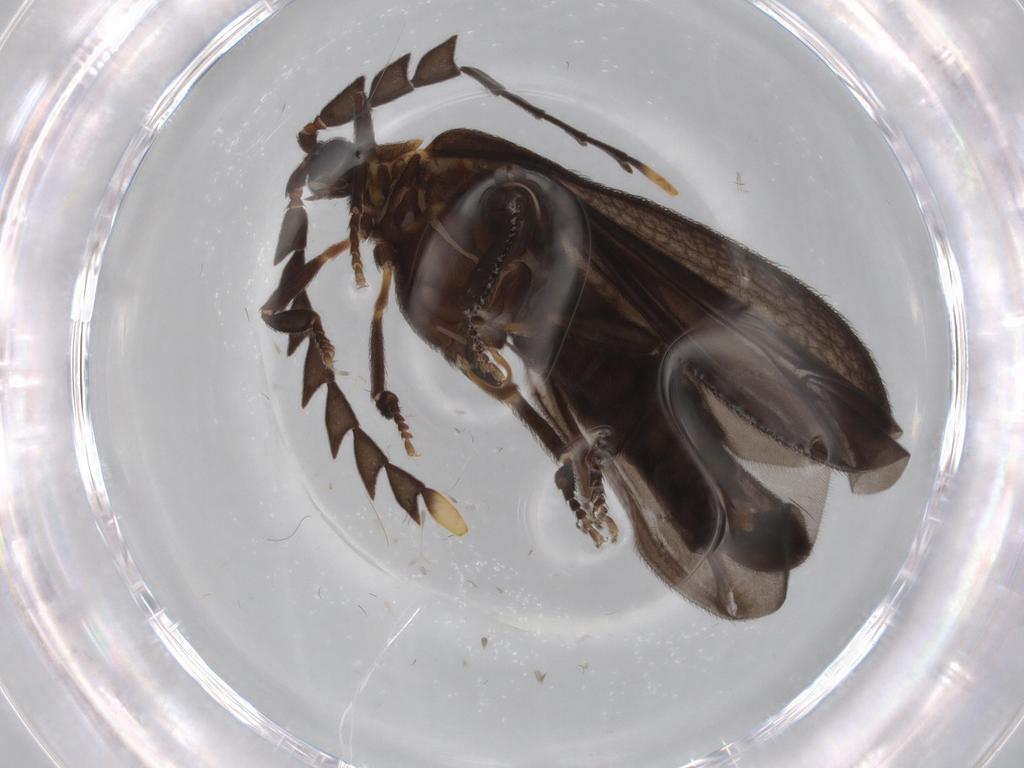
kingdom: Animalia
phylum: Arthropoda
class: Insecta
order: Coleoptera
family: Lycidae
